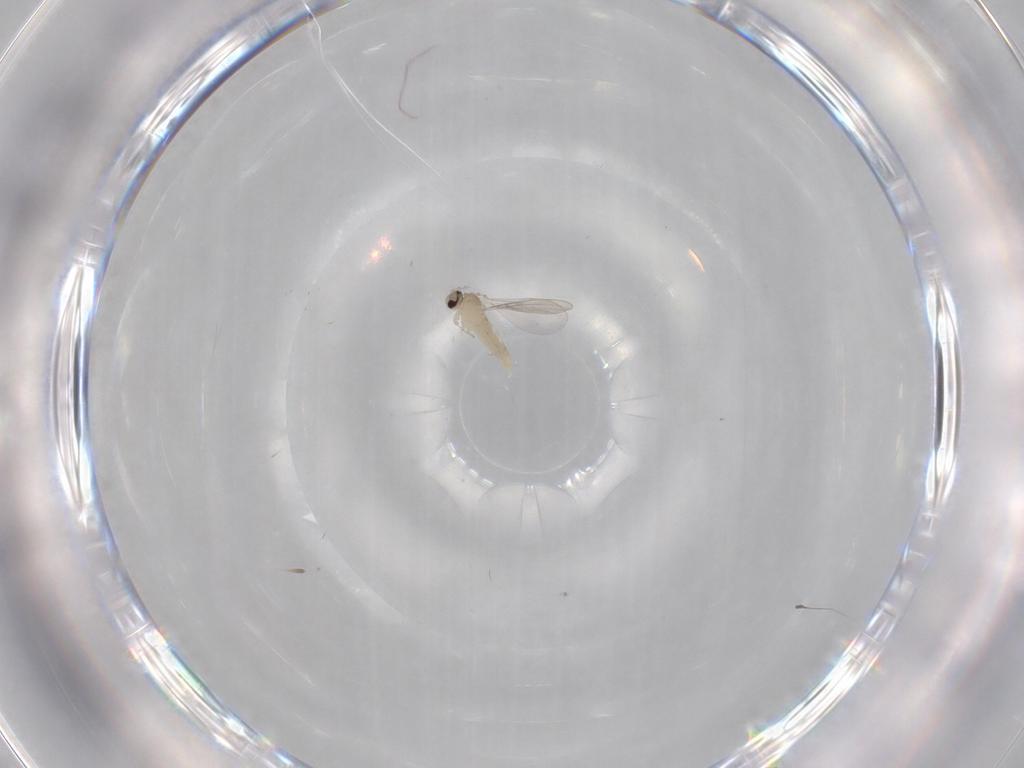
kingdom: Animalia
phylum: Arthropoda
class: Insecta
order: Diptera
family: Cecidomyiidae
